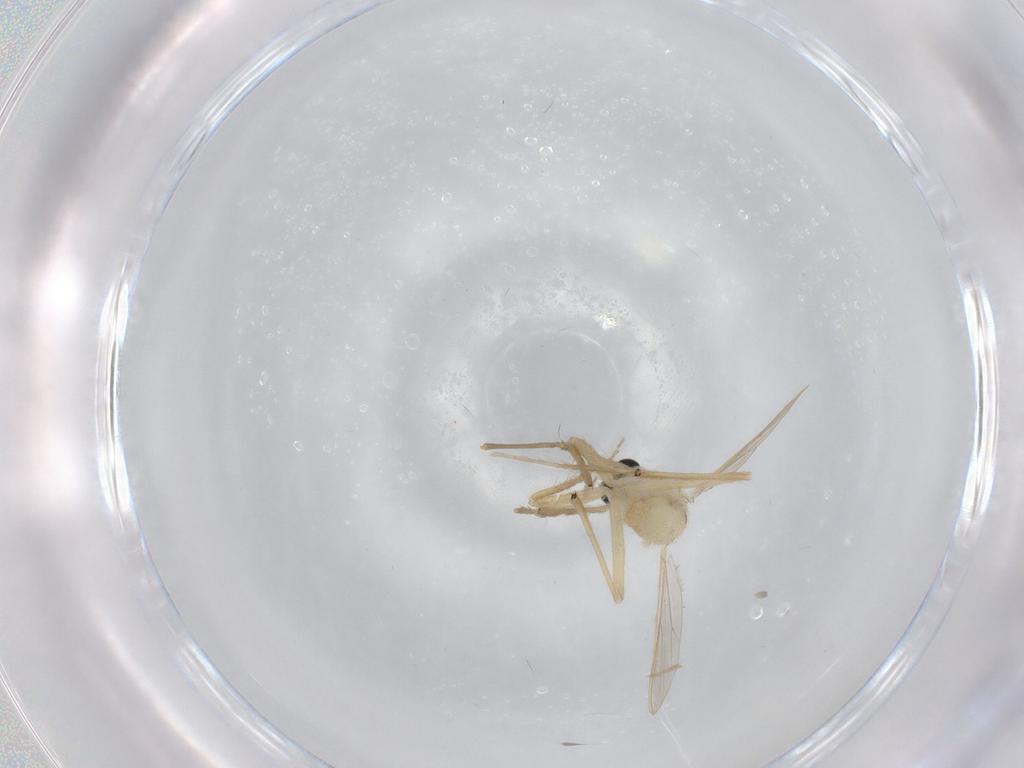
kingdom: Animalia
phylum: Arthropoda
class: Insecta
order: Diptera
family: Chironomidae
